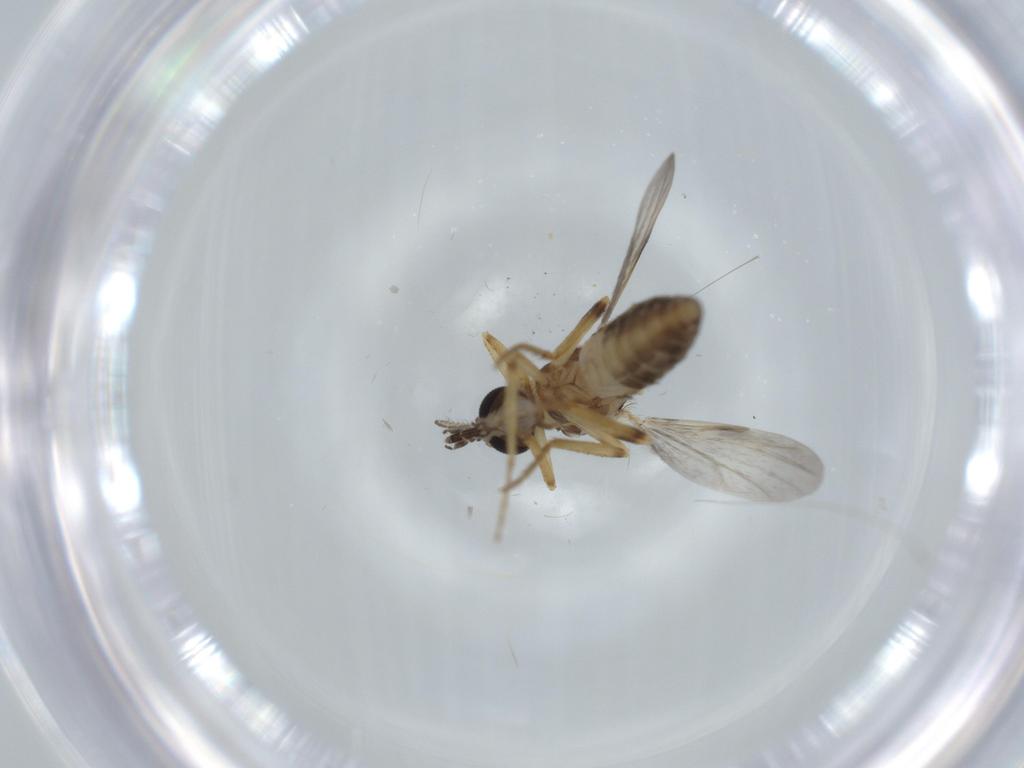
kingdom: Animalia
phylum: Arthropoda
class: Insecta
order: Diptera
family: Ceratopogonidae
